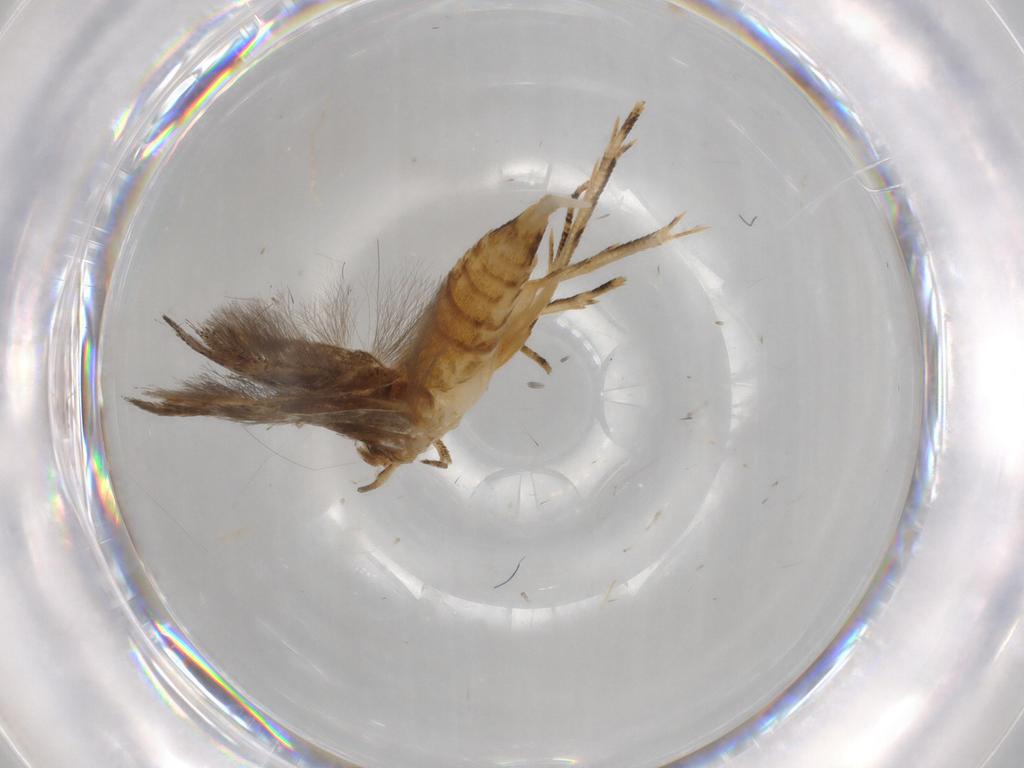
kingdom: Animalia
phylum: Arthropoda
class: Insecta
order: Lepidoptera
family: Momphidae
